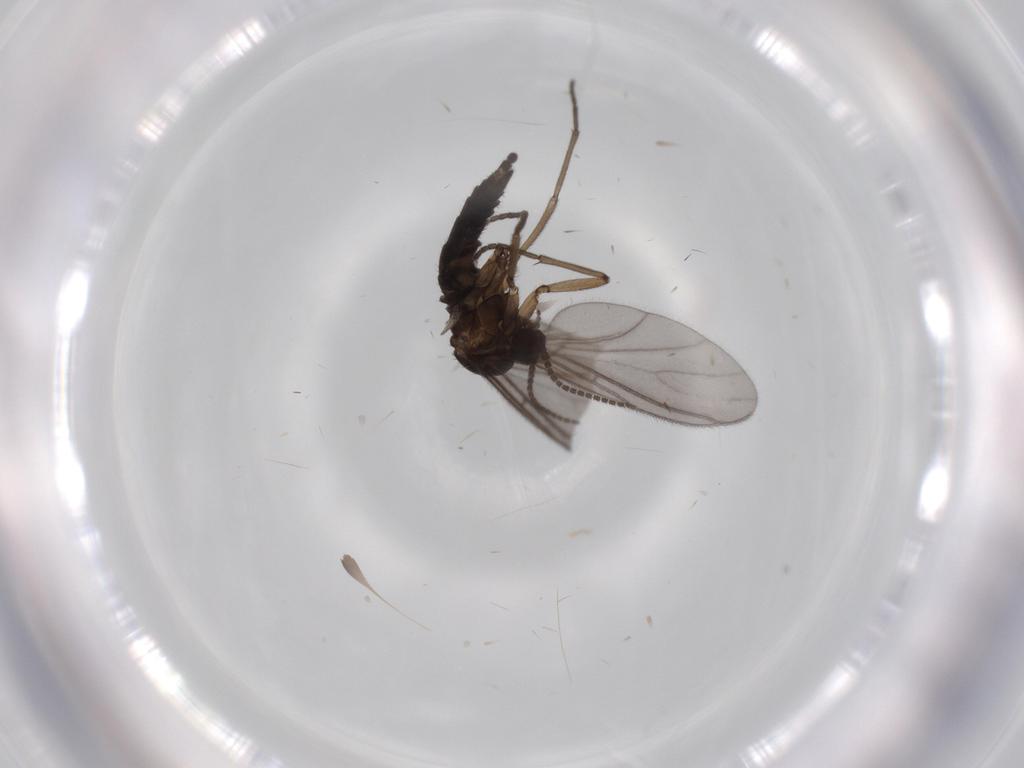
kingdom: Animalia
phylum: Arthropoda
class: Insecta
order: Diptera
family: Sciaridae
